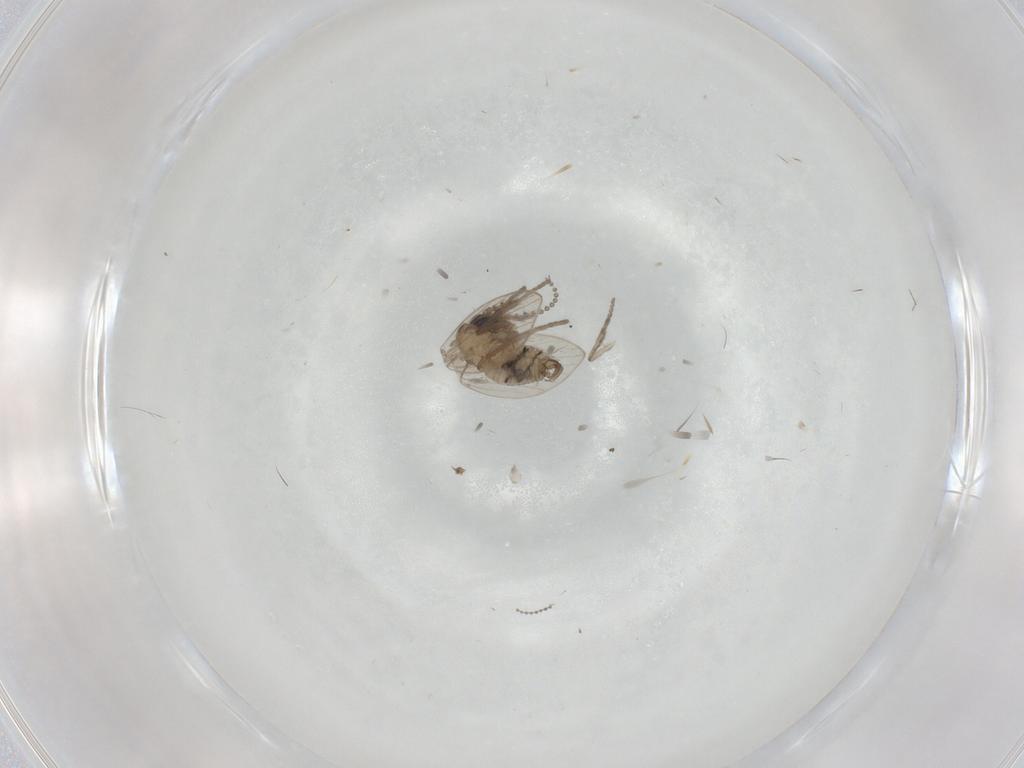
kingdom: Animalia
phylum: Arthropoda
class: Insecta
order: Diptera
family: Psychodidae
